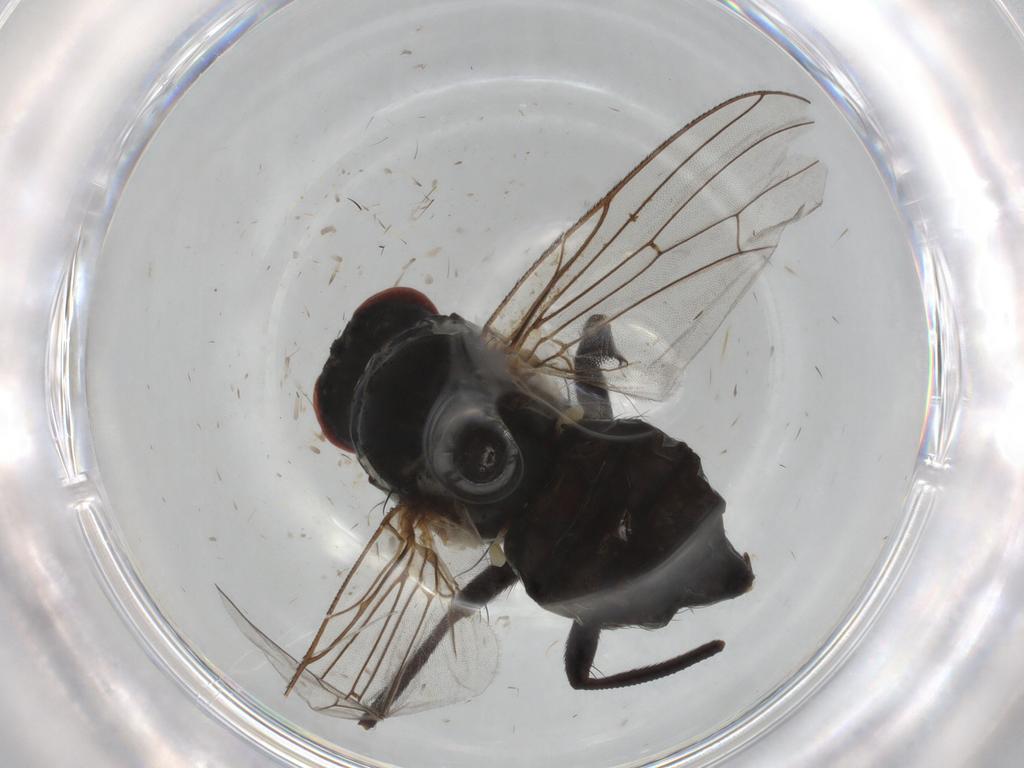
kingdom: Animalia
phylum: Arthropoda
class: Insecta
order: Diptera
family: Anthomyiidae
